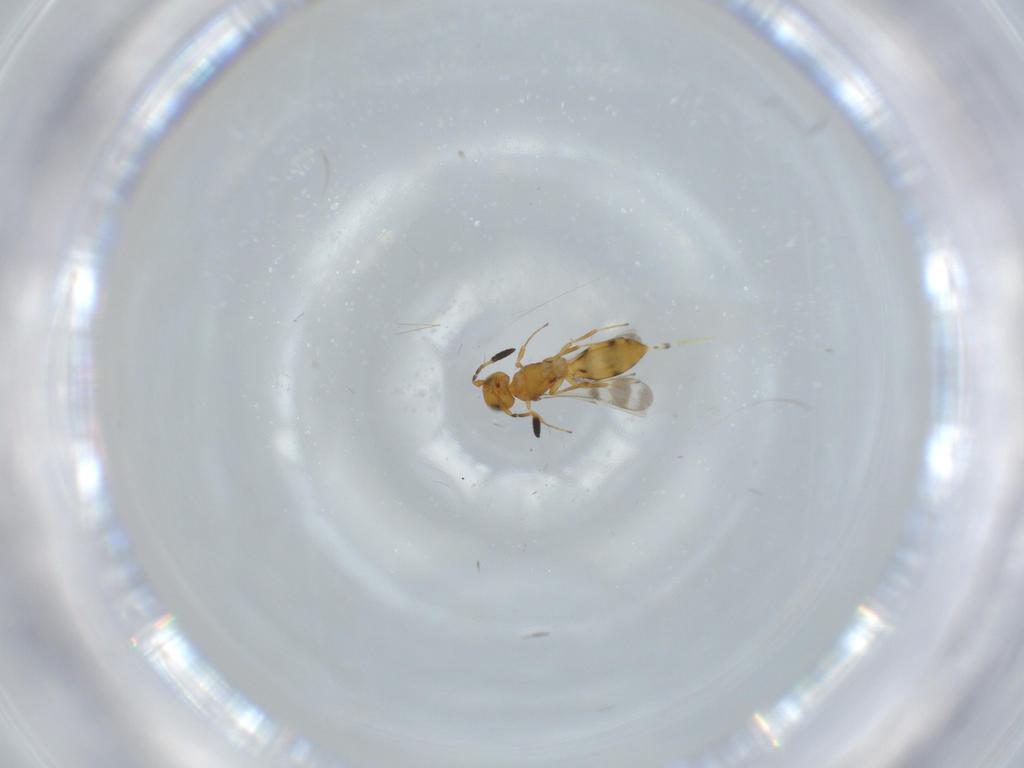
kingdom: Animalia
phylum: Arthropoda
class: Insecta
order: Hymenoptera
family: Scelionidae
